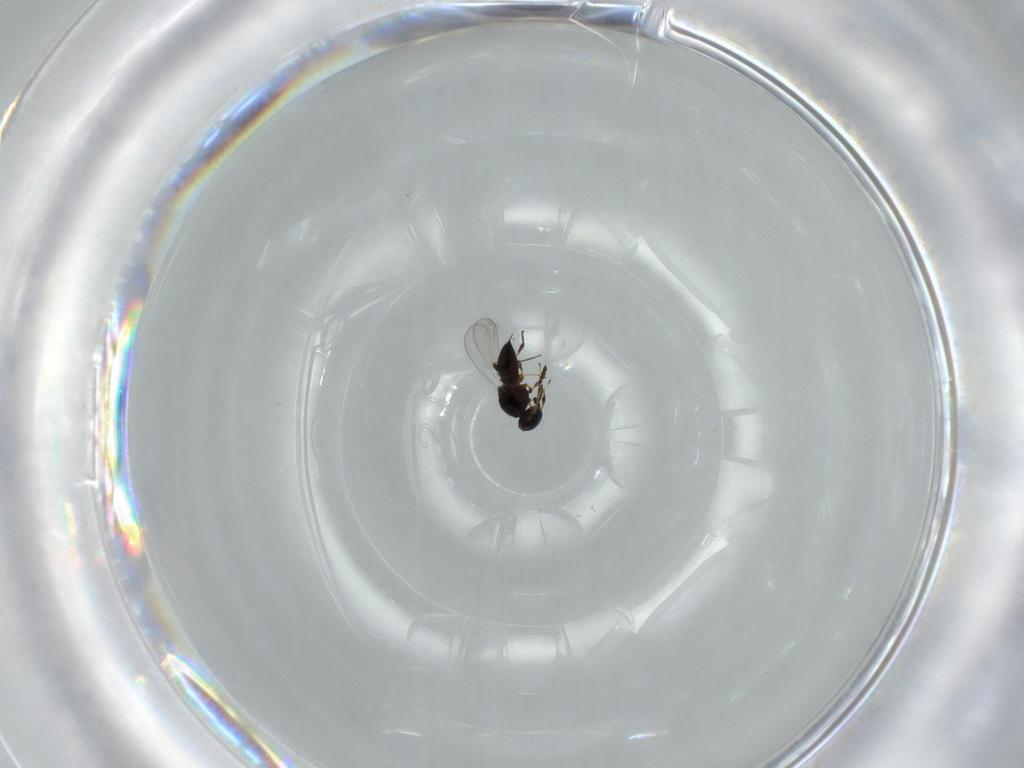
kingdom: Animalia
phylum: Arthropoda
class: Insecta
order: Hymenoptera
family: Platygastridae
